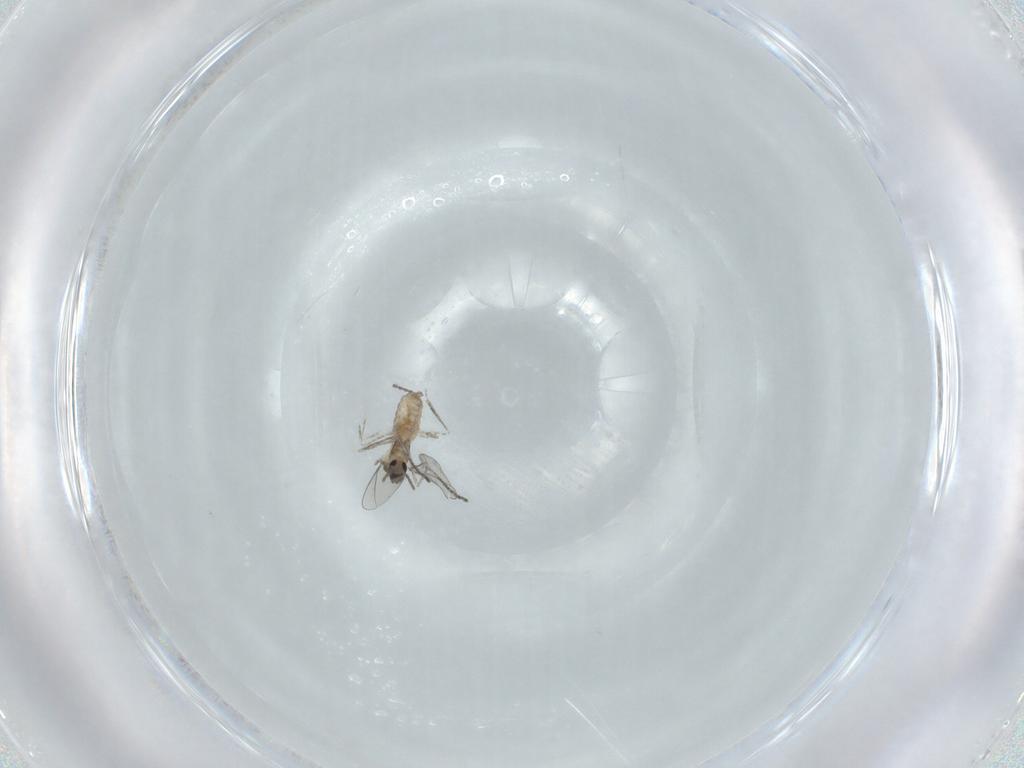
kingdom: Animalia
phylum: Arthropoda
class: Insecta
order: Diptera
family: Cecidomyiidae
